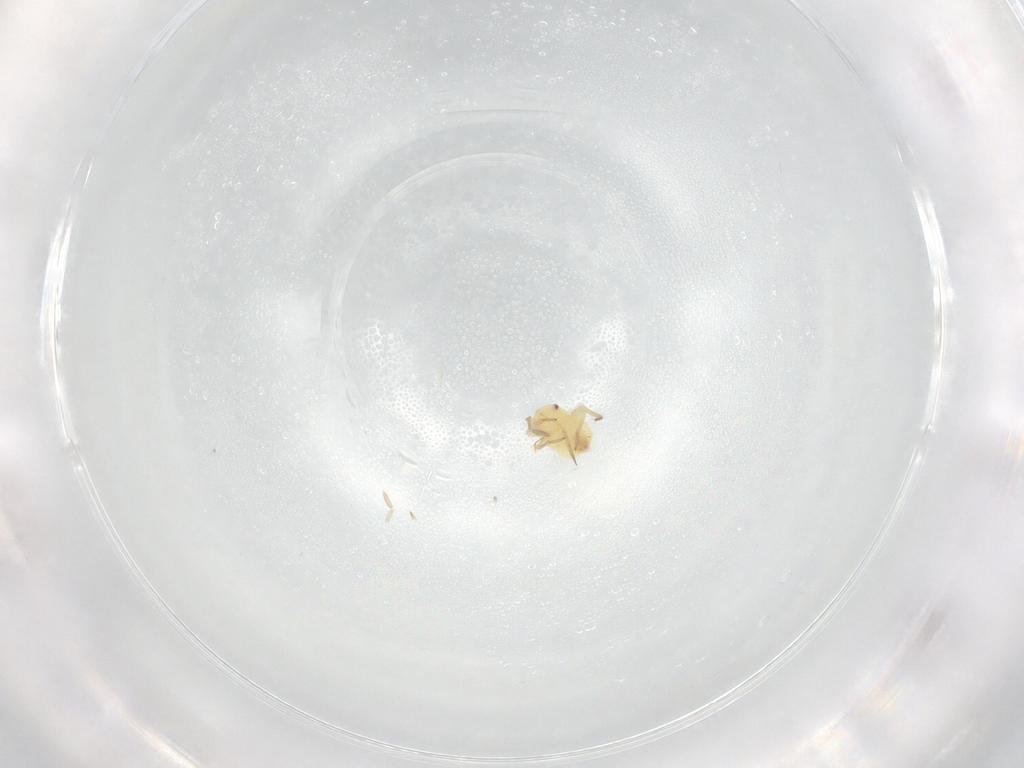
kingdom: Animalia
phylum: Arthropoda
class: Insecta
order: Hemiptera
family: Miridae
